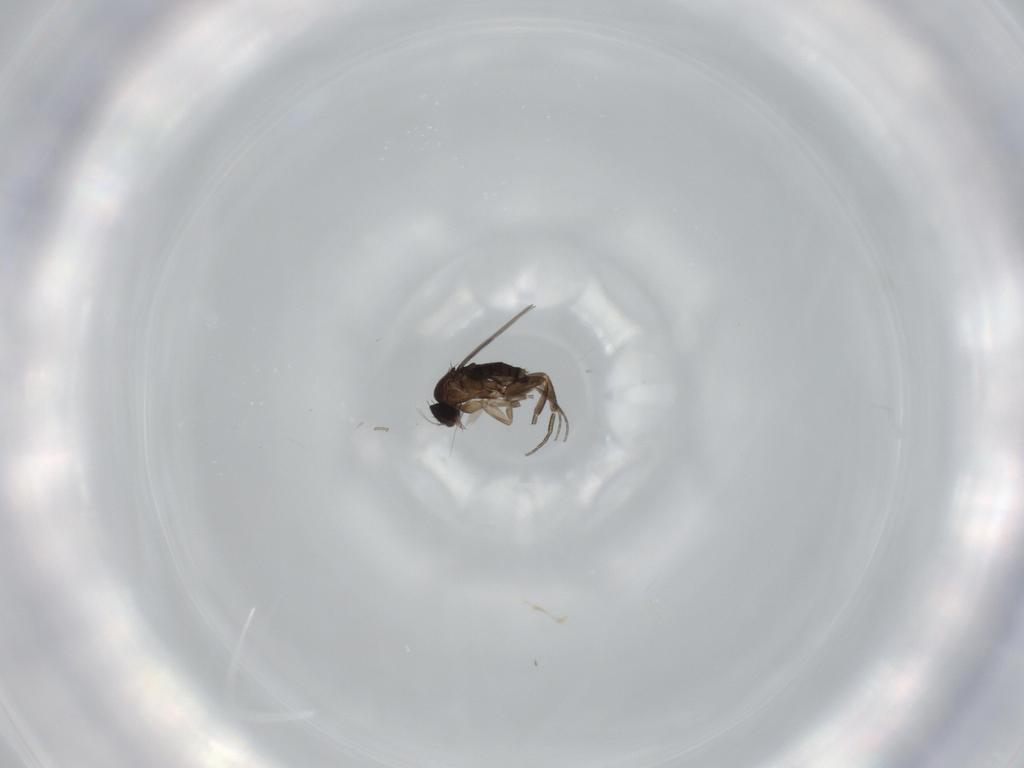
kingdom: Animalia
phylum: Arthropoda
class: Insecta
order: Diptera
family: Phoridae
